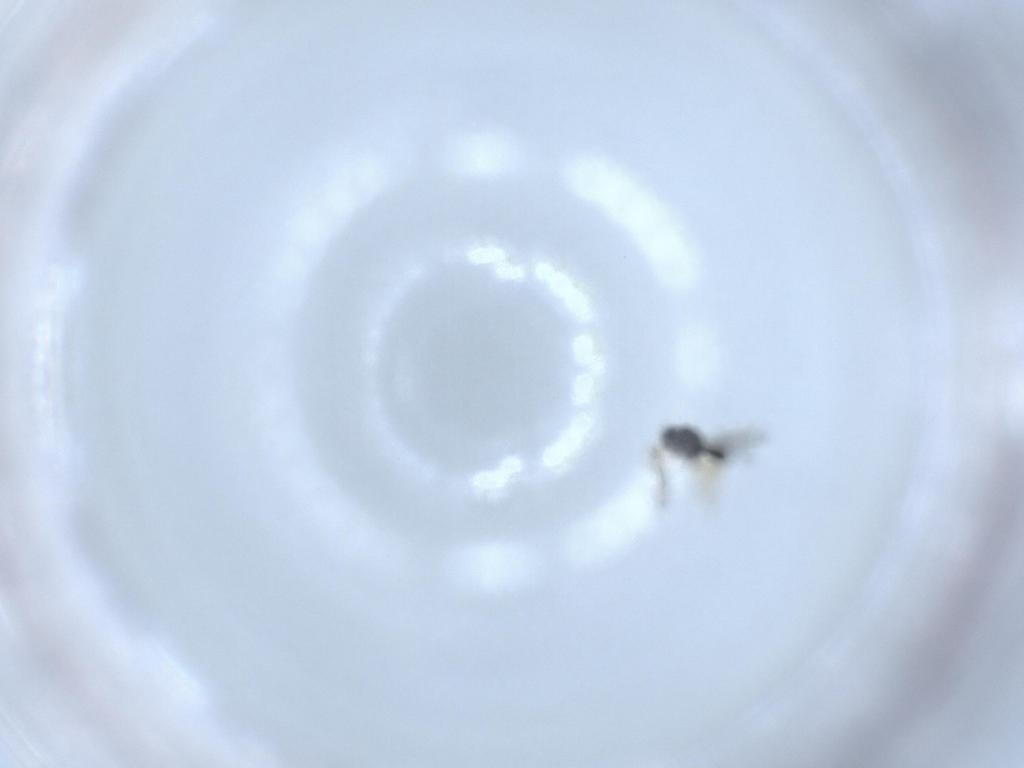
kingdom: Animalia
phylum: Arthropoda
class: Insecta
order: Hymenoptera
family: Scelionidae
